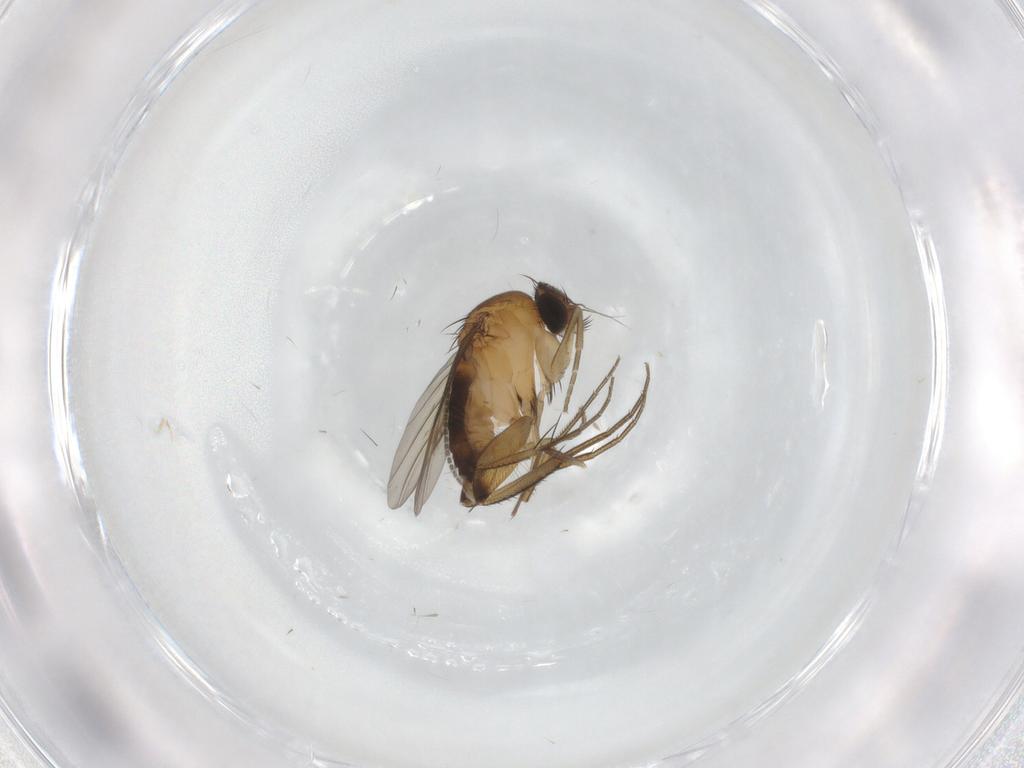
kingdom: Animalia
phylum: Arthropoda
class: Insecta
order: Diptera
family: Phoridae
